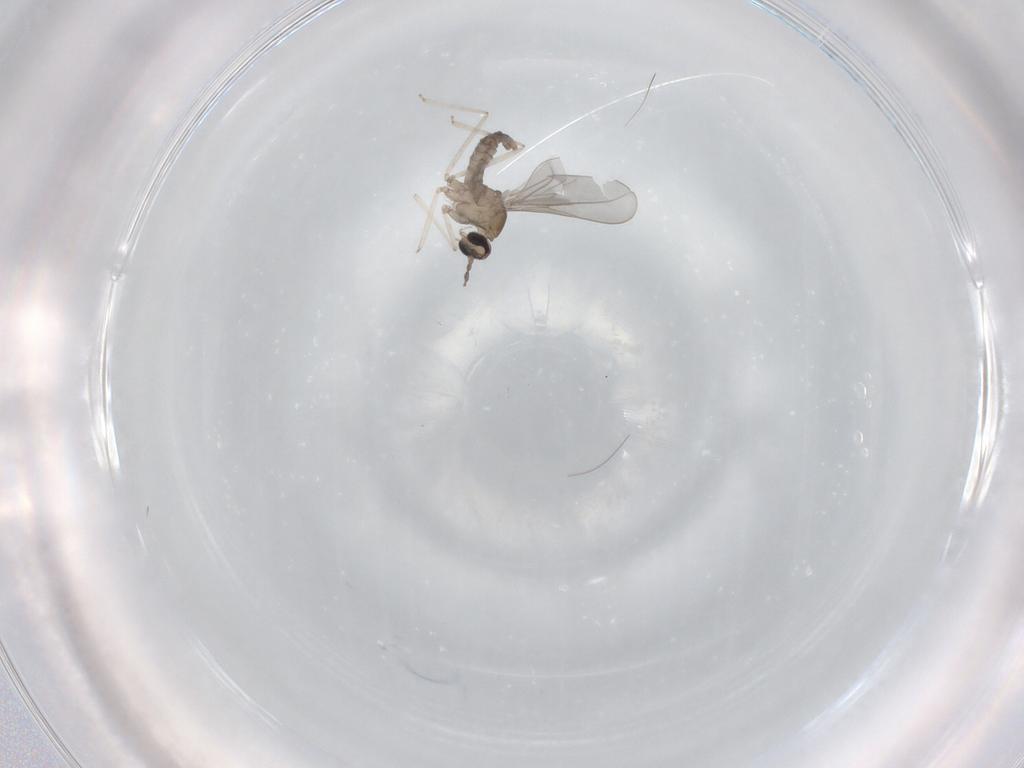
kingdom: Animalia
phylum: Arthropoda
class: Insecta
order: Diptera
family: Cecidomyiidae
